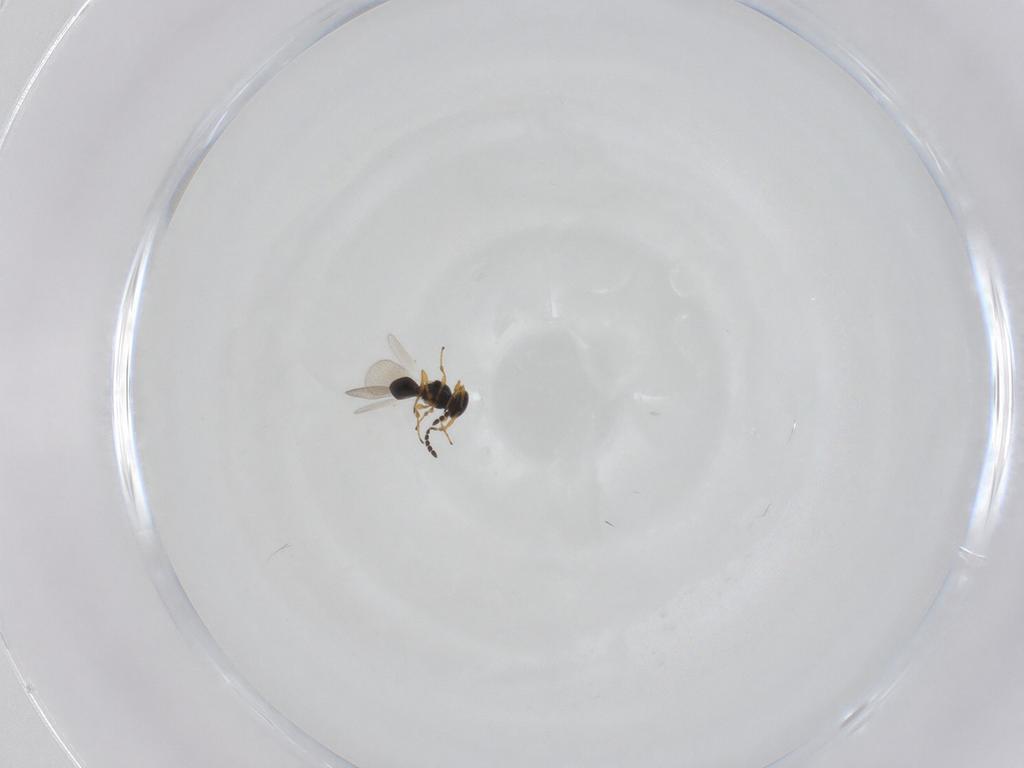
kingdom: Animalia
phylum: Arthropoda
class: Insecta
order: Hymenoptera
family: Platygastridae
